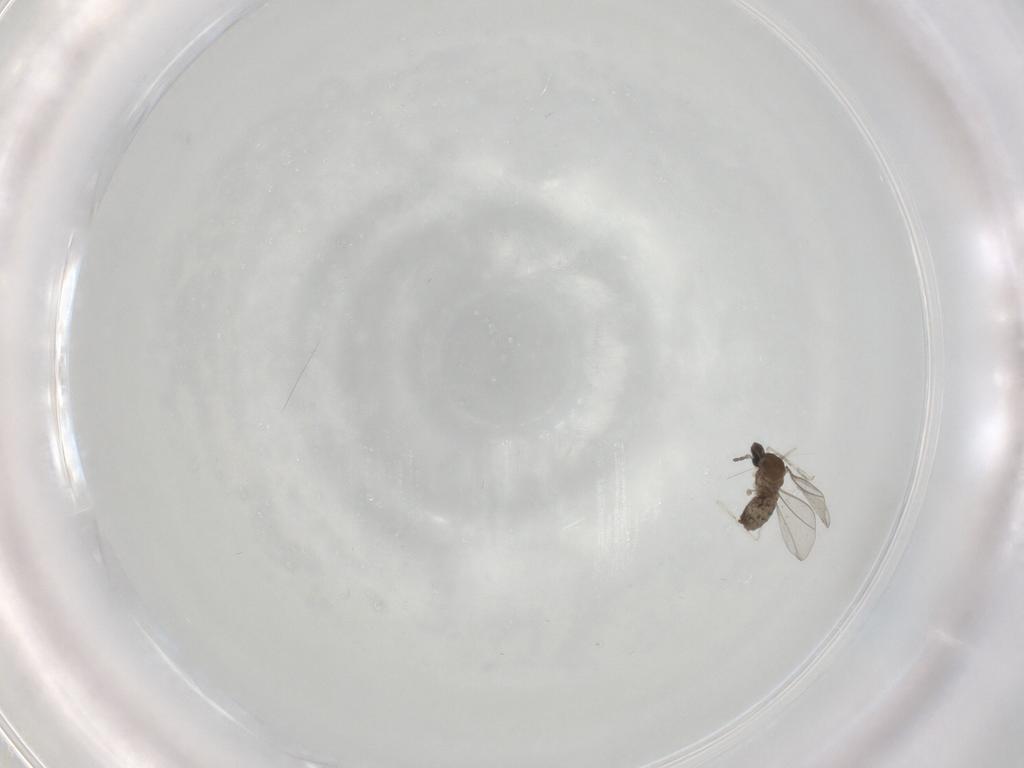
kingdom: Animalia
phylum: Arthropoda
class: Insecta
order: Diptera
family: Cecidomyiidae
